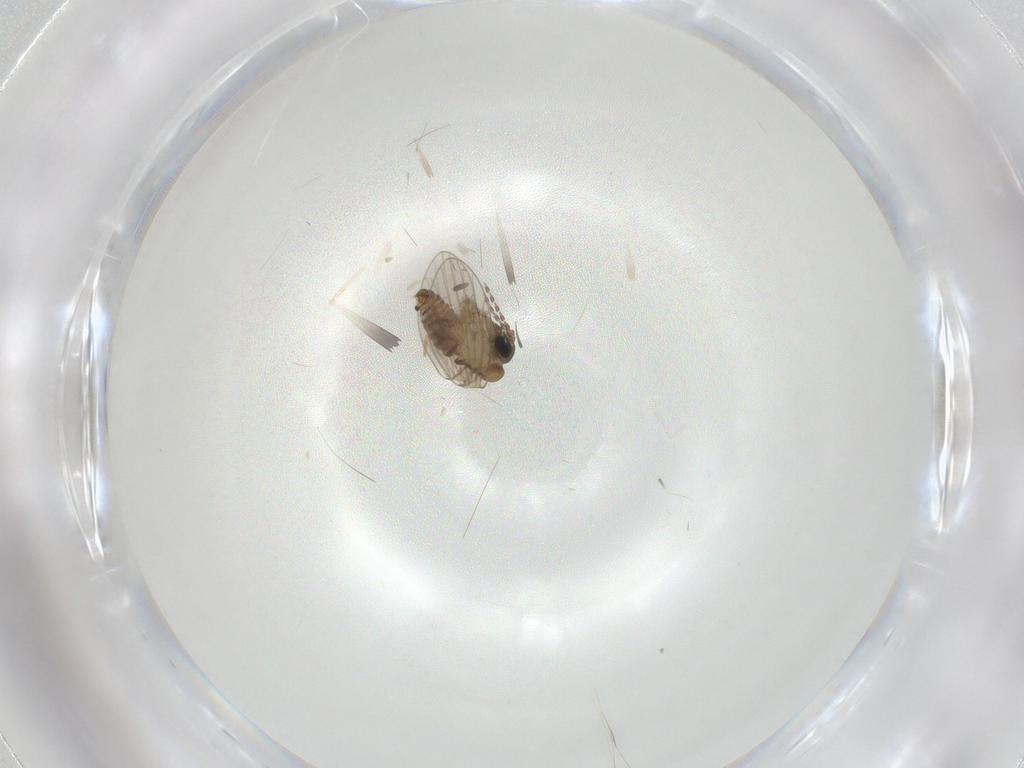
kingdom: Animalia
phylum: Arthropoda
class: Insecta
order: Diptera
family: Psychodidae
